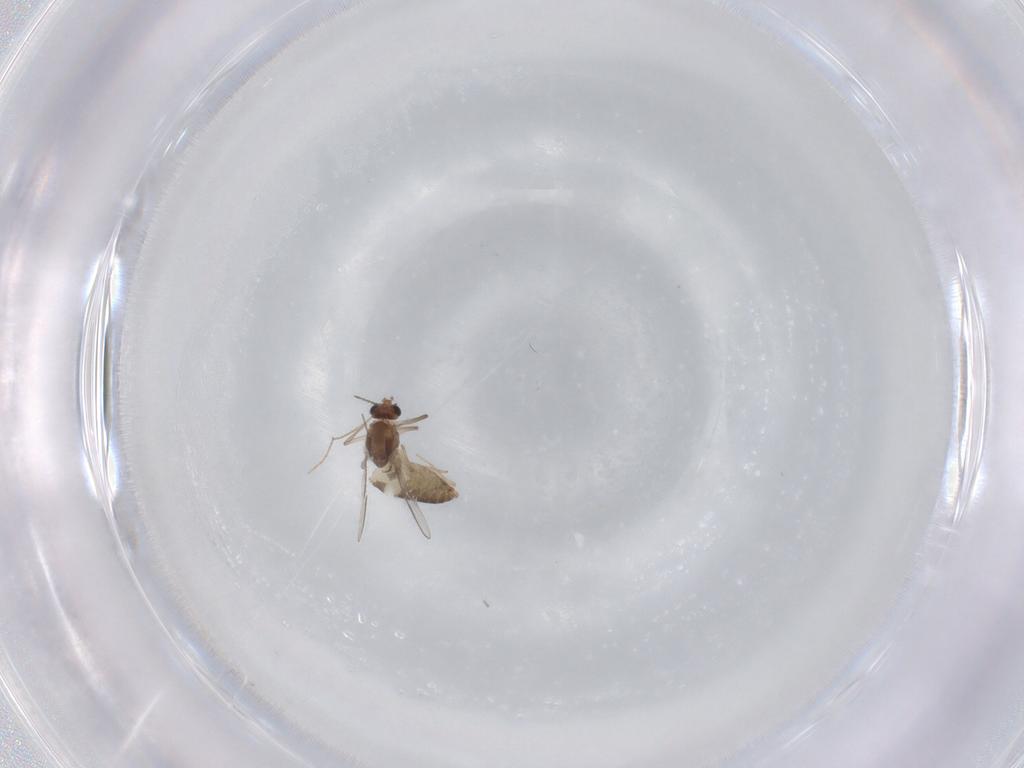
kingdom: Animalia
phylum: Arthropoda
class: Insecta
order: Diptera
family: Chironomidae
